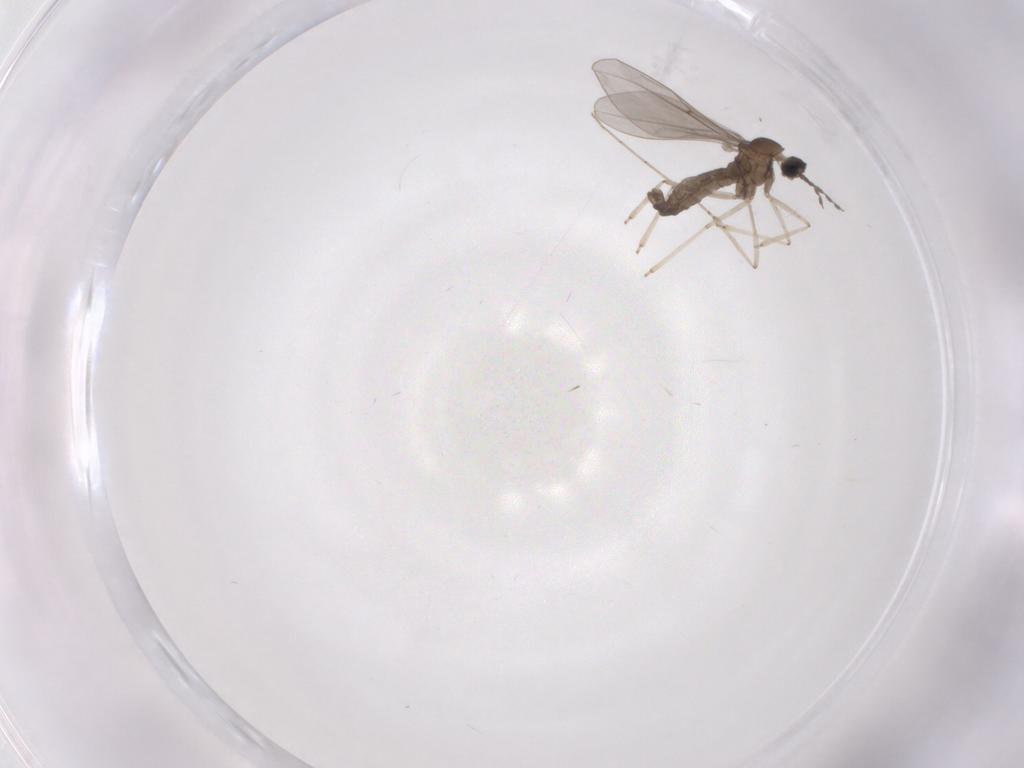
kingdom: Animalia
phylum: Arthropoda
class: Insecta
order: Diptera
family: Cecidomyiidae
